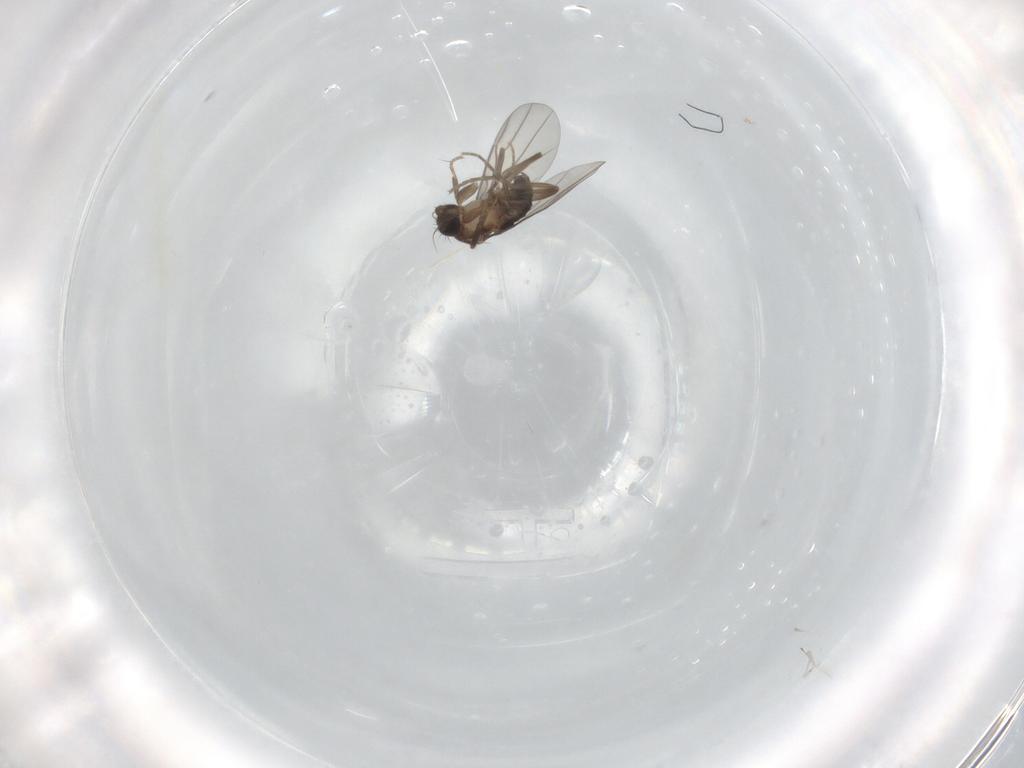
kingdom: Animalia
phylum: Arthropoda
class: Insecta
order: Diptera
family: Phoridae
